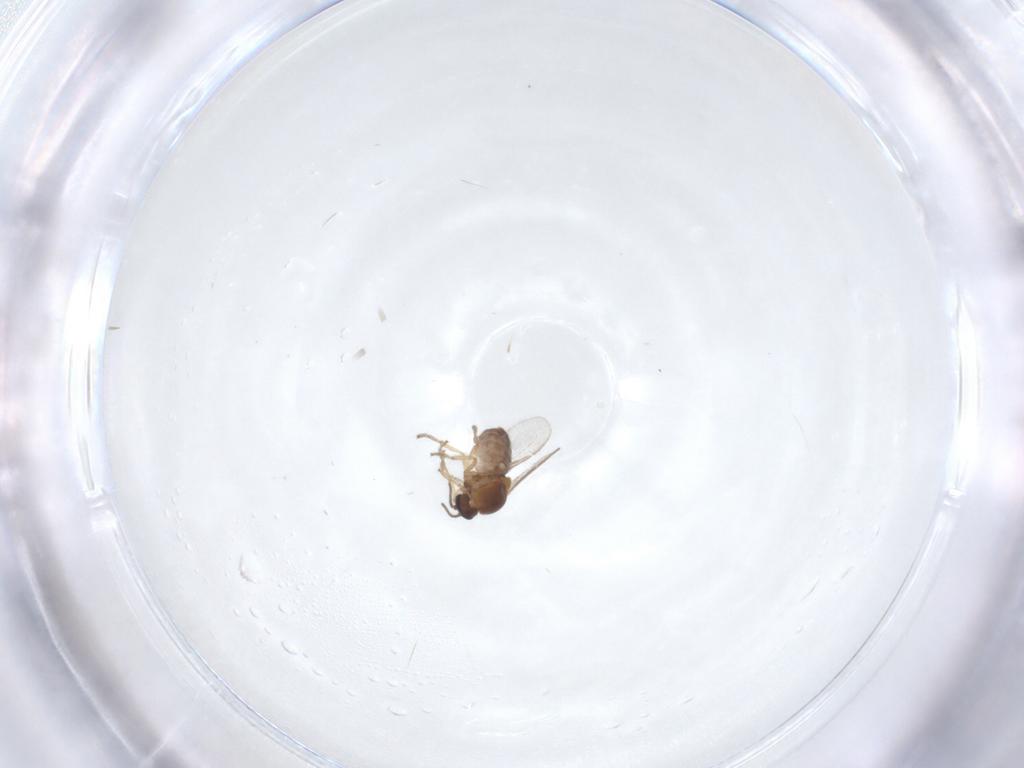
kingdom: Animalia
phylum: Arthropoda
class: Insecta
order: Diptera
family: Ceratopogonidae
